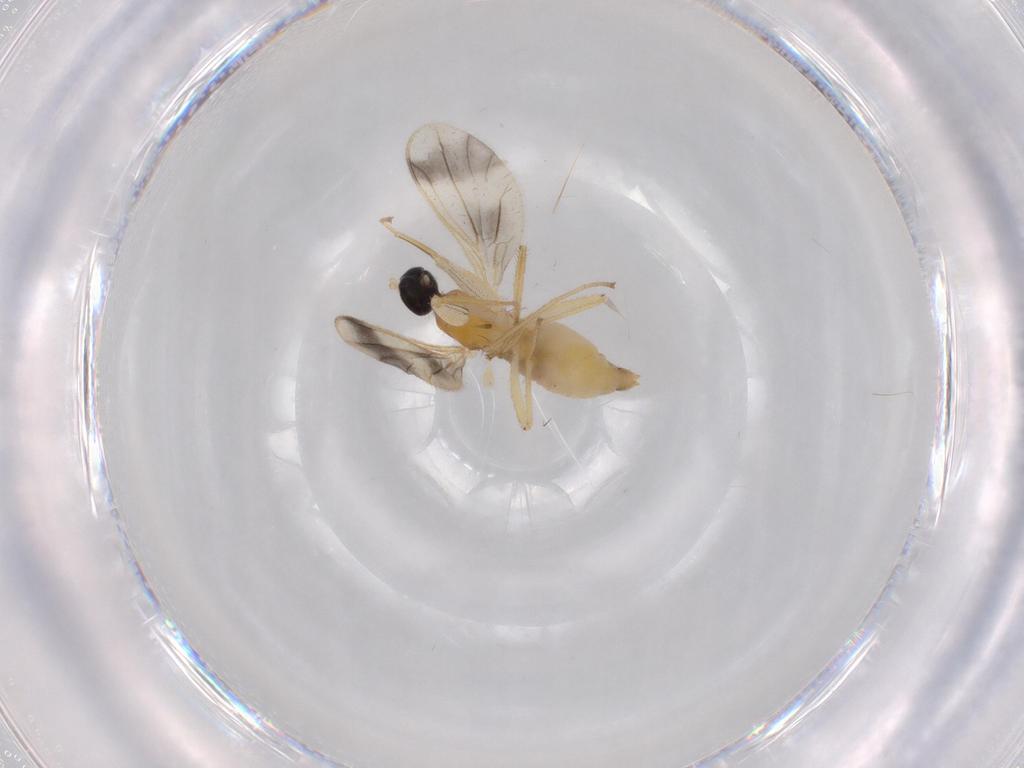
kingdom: Animalia
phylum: Arthropoda
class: Insecta
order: Diptera
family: Empididae
